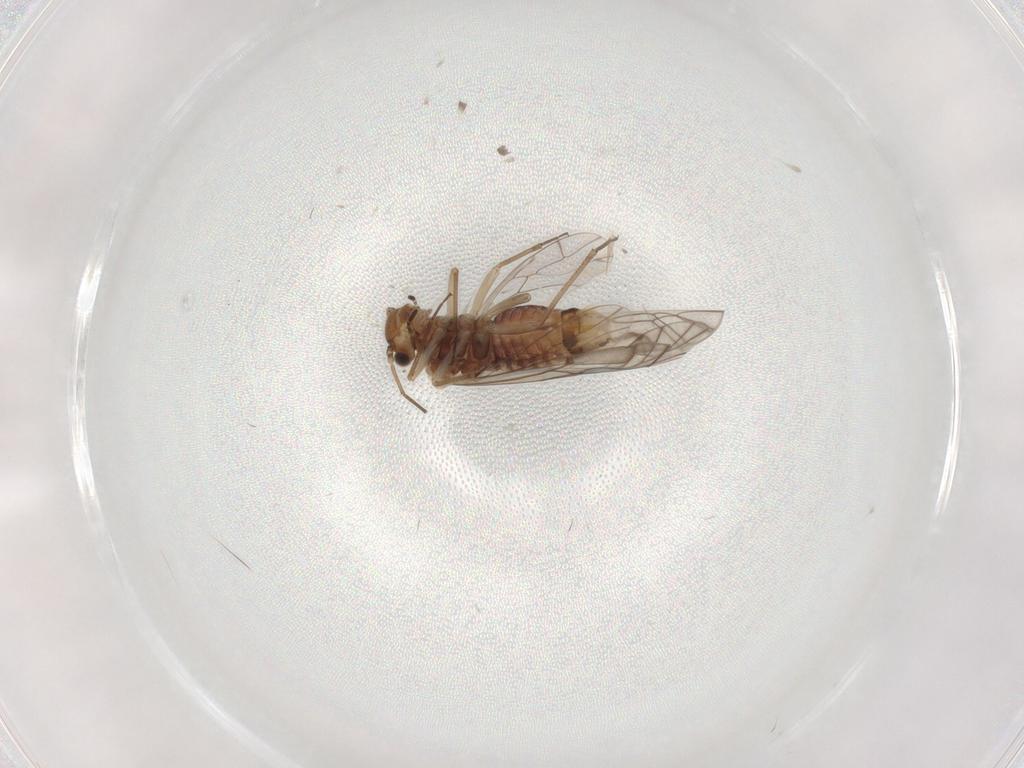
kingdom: Animalia
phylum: Arthropoda
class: Insecta
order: Psocodea
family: Lachesillidae
